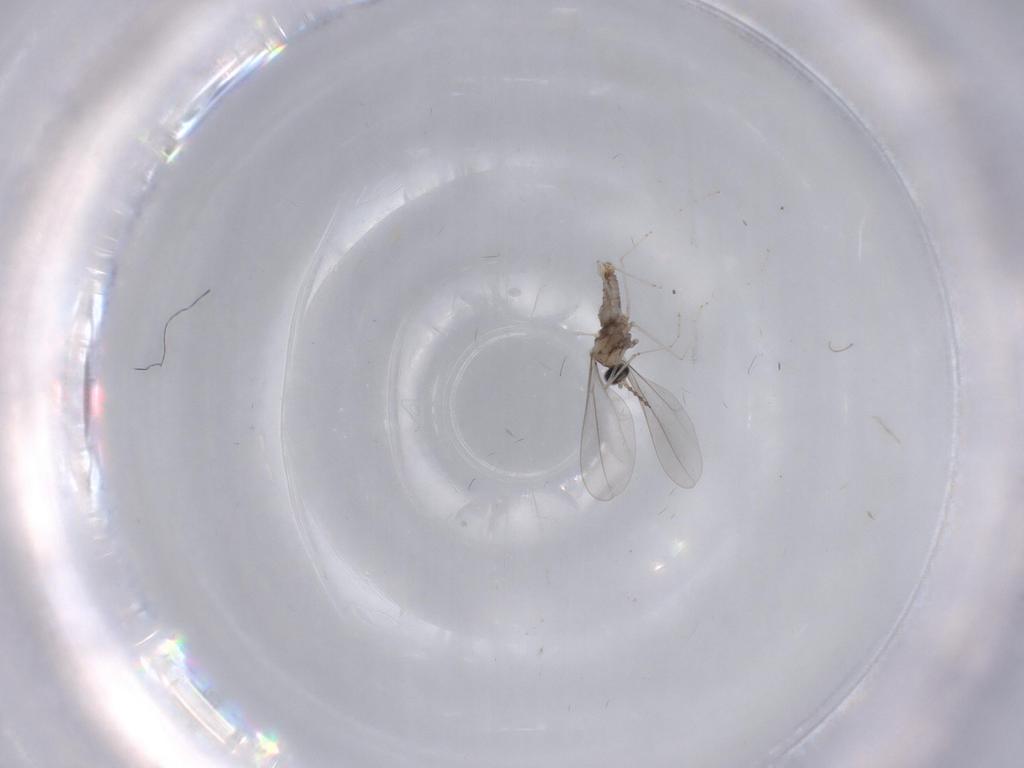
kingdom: Animalia
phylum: Arthropoda
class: Insecta
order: Diptera
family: Cecidomyiidae
